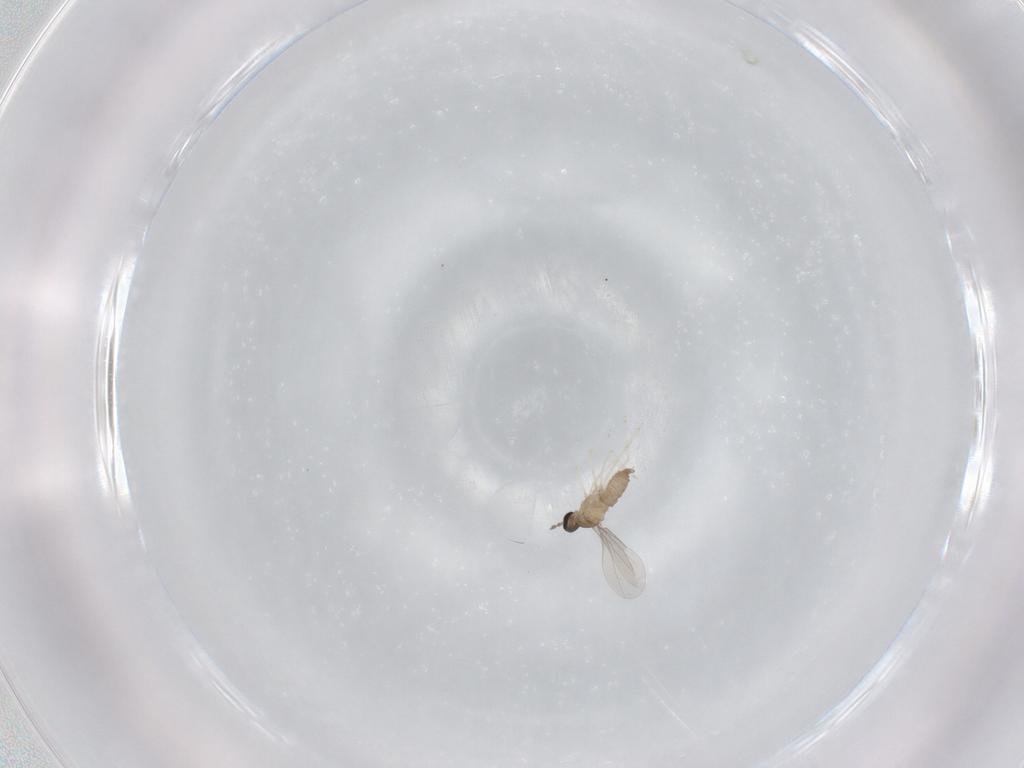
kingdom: Animalia
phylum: Arthropoda
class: Insecta
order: Diptera
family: Cecidomyiidae
